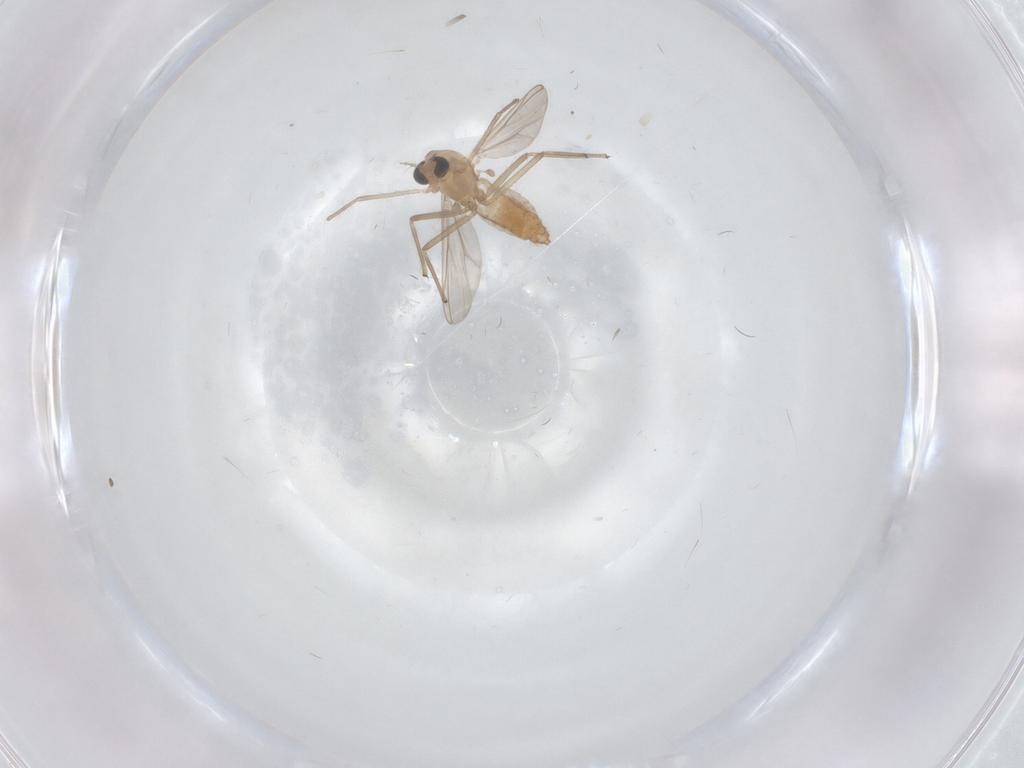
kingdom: Animalia
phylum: Arthropoda
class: Insecta
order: Diptera
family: Chironomidae
